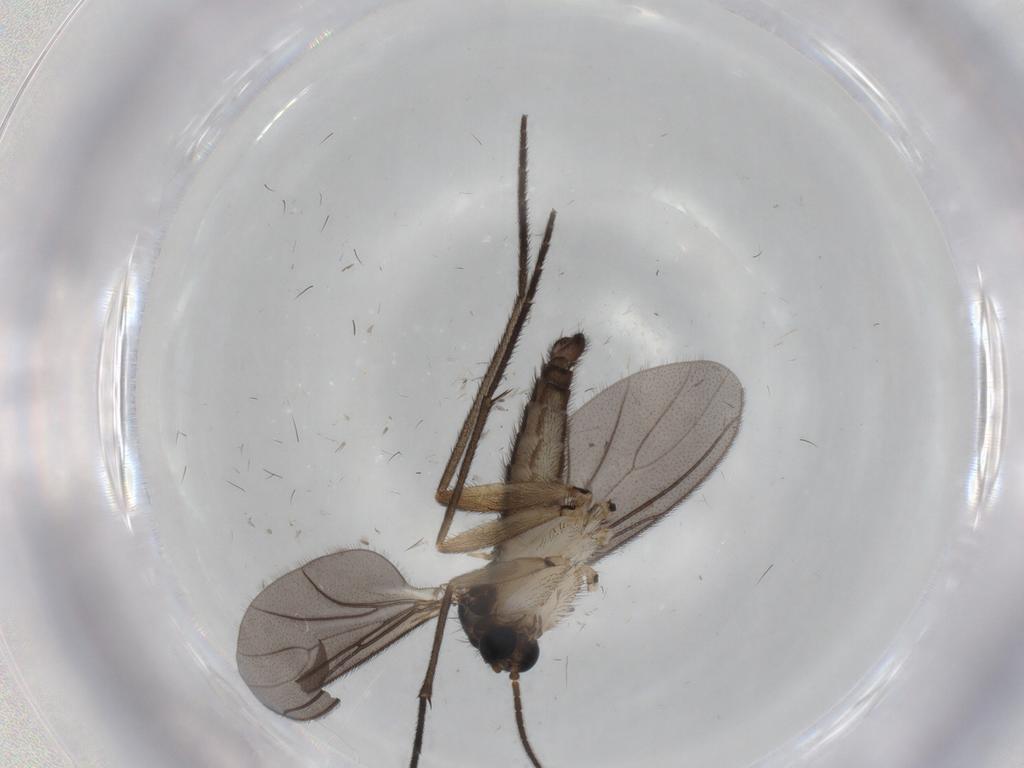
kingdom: Animalia
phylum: Arthropoda
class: Insecta
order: Diptera
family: Sciaridae
